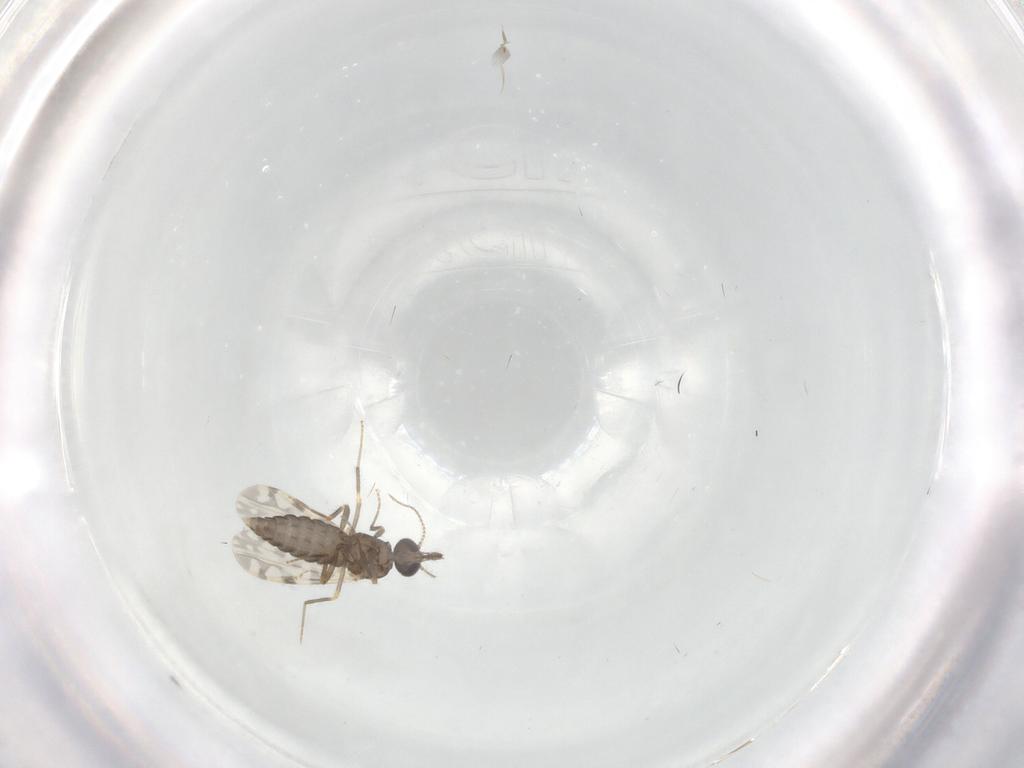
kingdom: Animalia
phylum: Arthropoda
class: Insecta
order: Diptera
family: Ceratopogonidae
